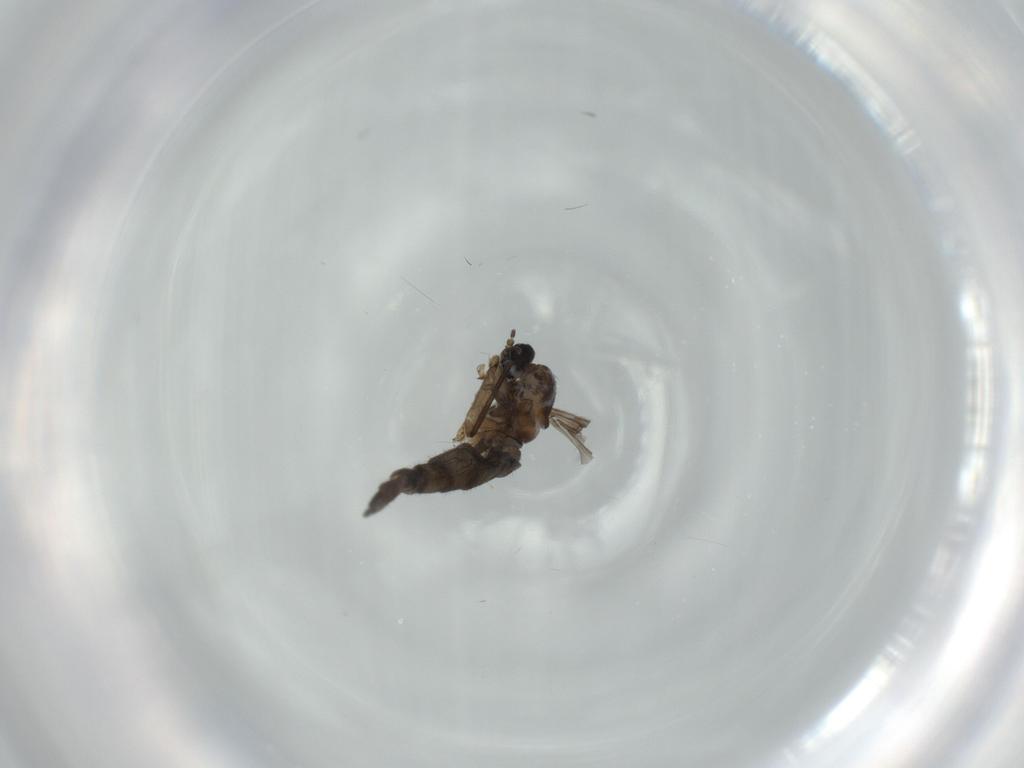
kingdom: Animalia
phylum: Arthropoda
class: Insecta
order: Diptera
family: Sciaridae
